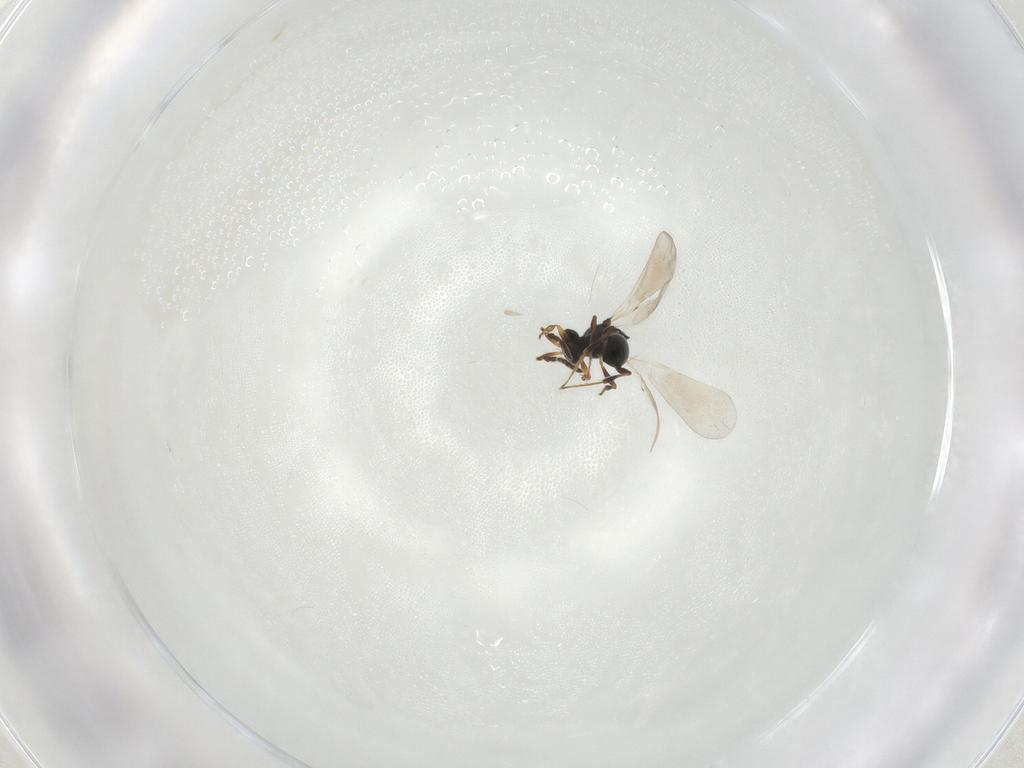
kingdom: Animalia
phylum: Arthropoda
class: Insecta
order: Hymenoptera
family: Platygastridae
